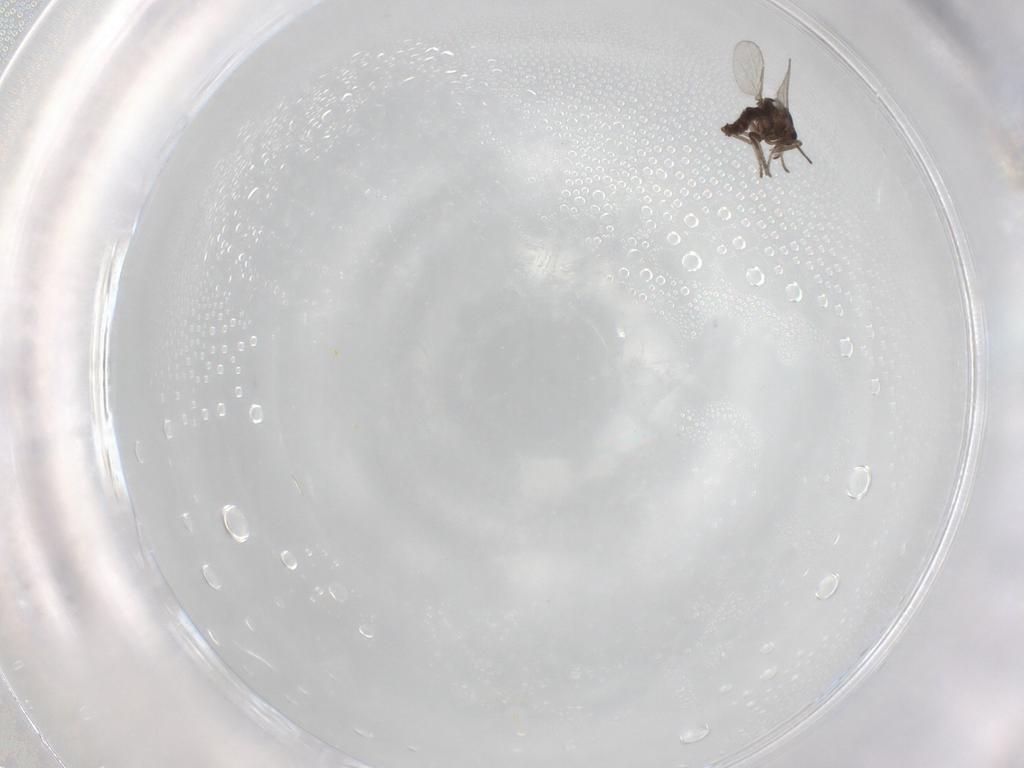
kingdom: Animalia
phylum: Arthropoda
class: Insecta
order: Diptera
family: Ceratopogonidae
